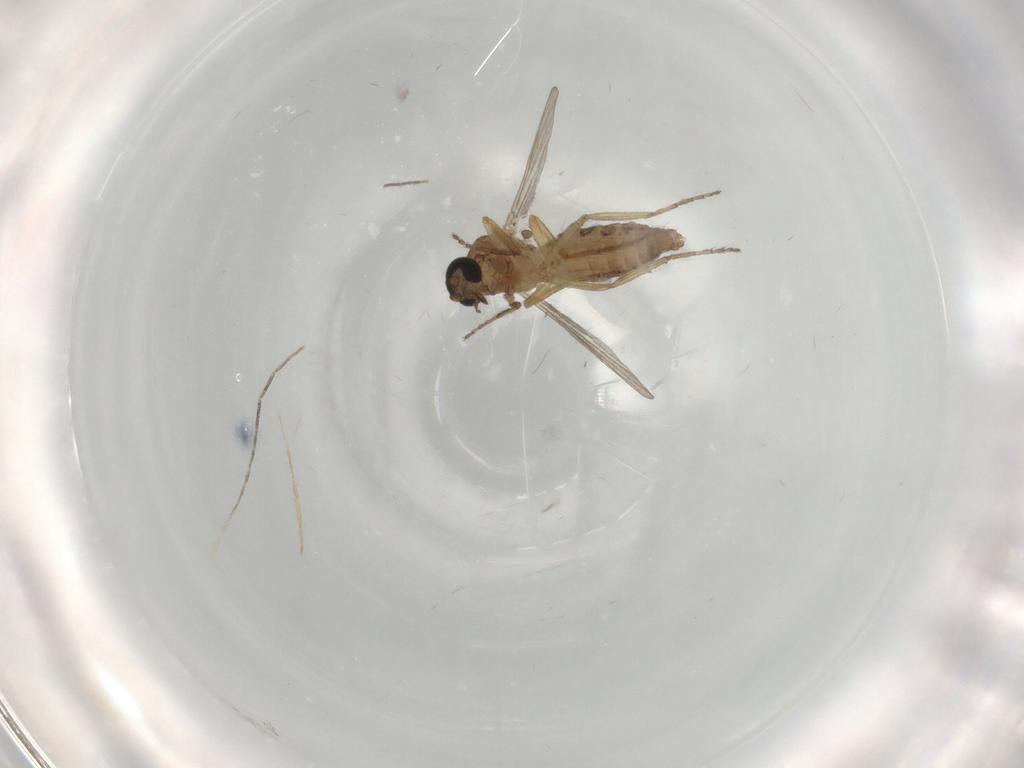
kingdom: Animalia
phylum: Arthropoda
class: Insecta
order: Diptera
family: Ceratopogonidae
